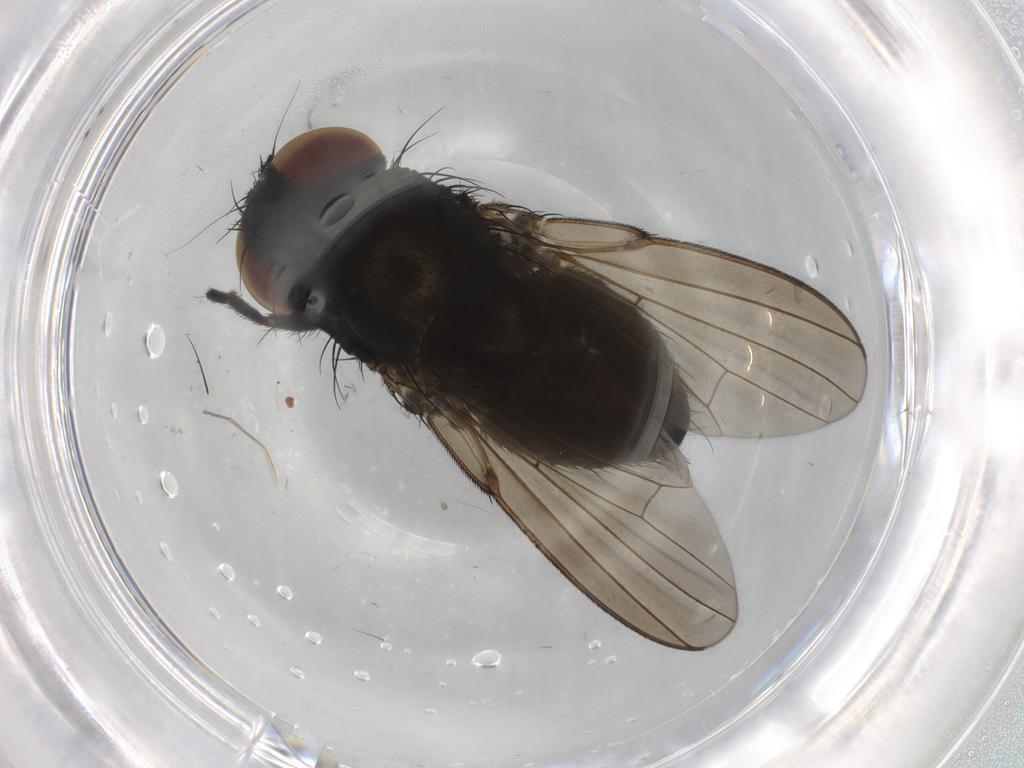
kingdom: Animalia
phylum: Arthropoda
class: Insecta
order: Diptera
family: Milichiidae
